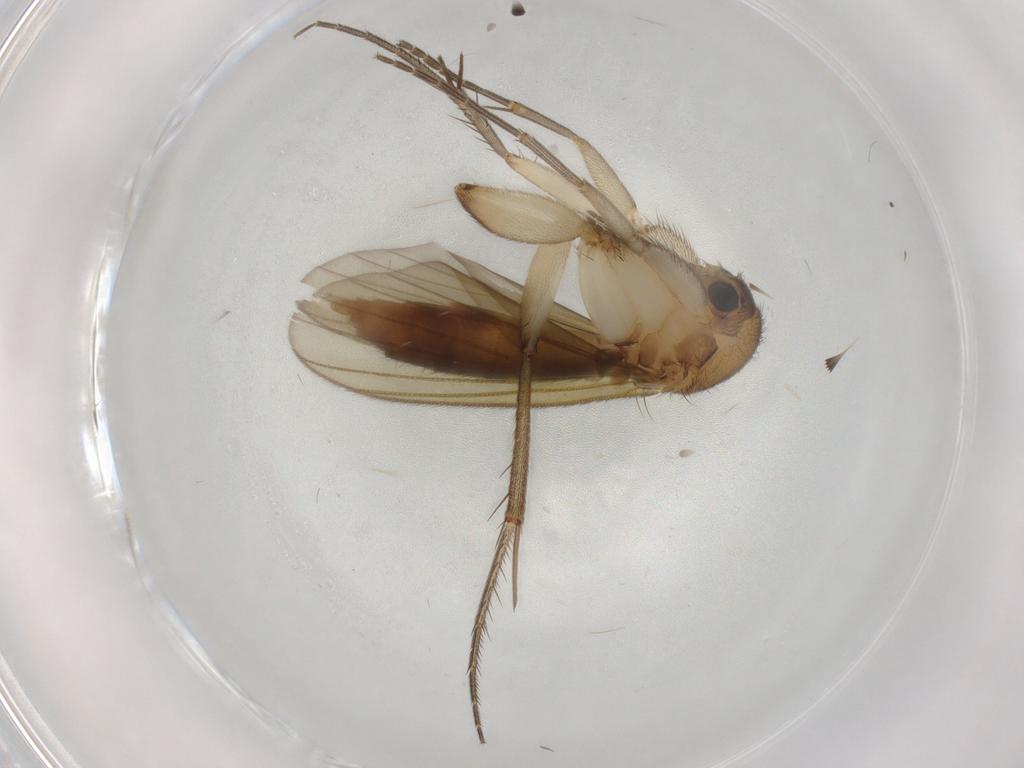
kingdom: Animalia
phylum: Arthropoda
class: Insecta
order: Diptera
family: Mycetophilidae
